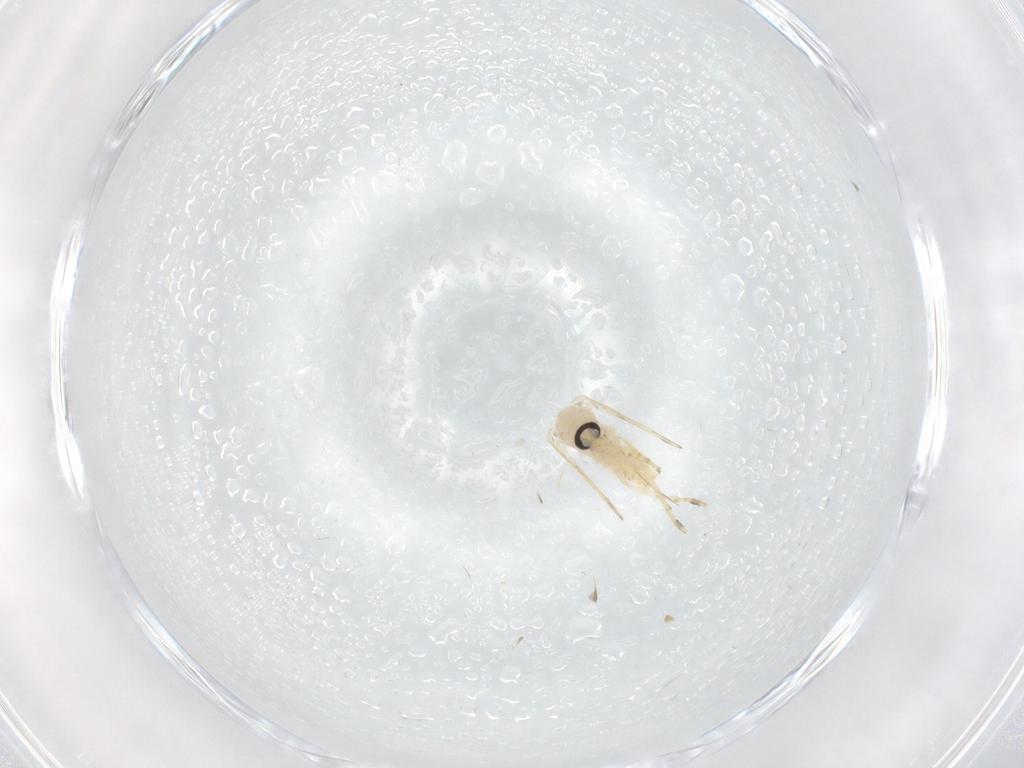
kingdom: Animalia
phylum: Arthropoda
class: Insecta
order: Diptera
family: Psychodidae
